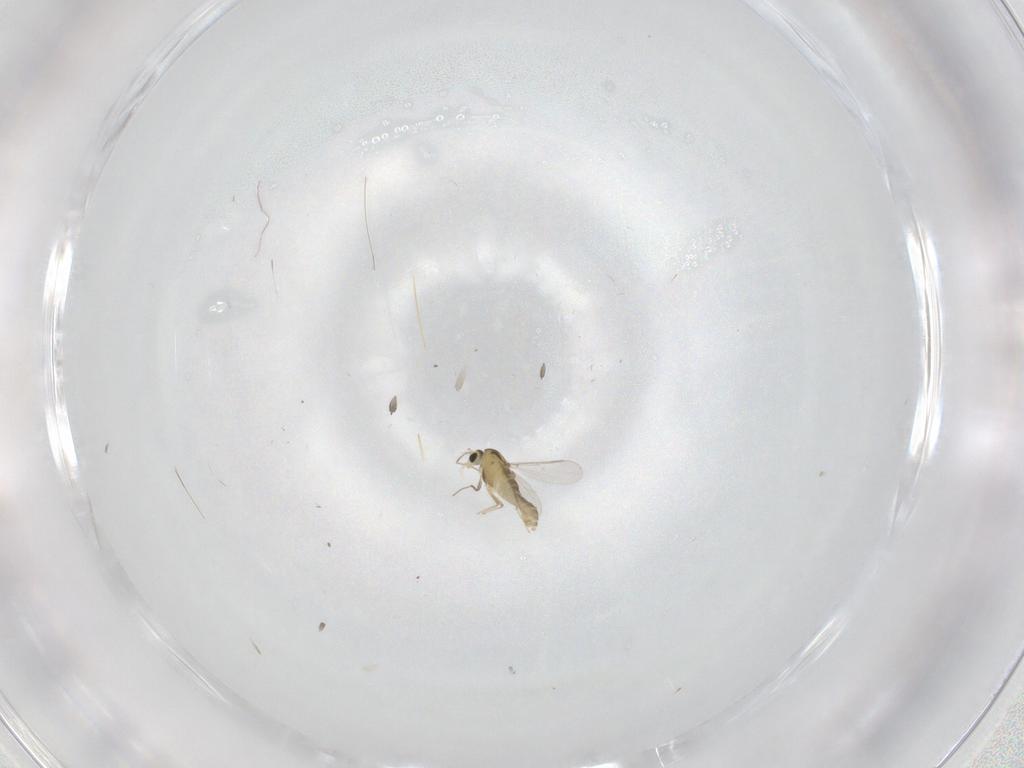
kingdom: Animalia
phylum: Arthropoda
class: Insecta
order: Diptera
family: Chironomidae
